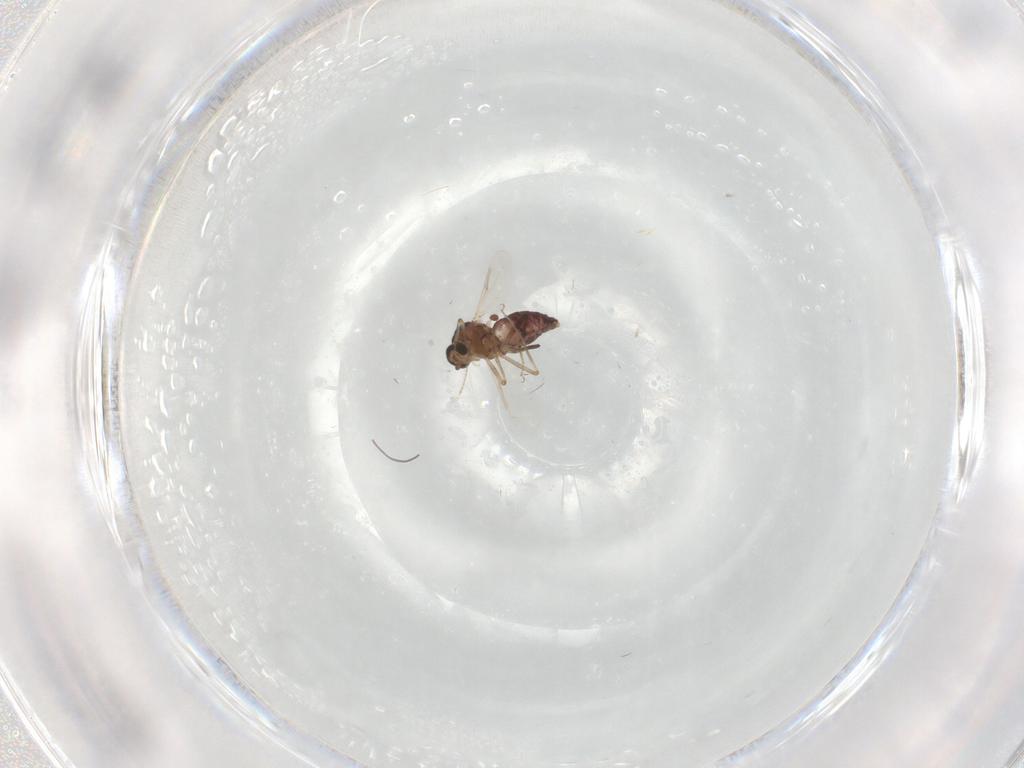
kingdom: Animalia
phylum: Arthropoda
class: Insecta
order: Diptera
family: Ceratopogonidae
